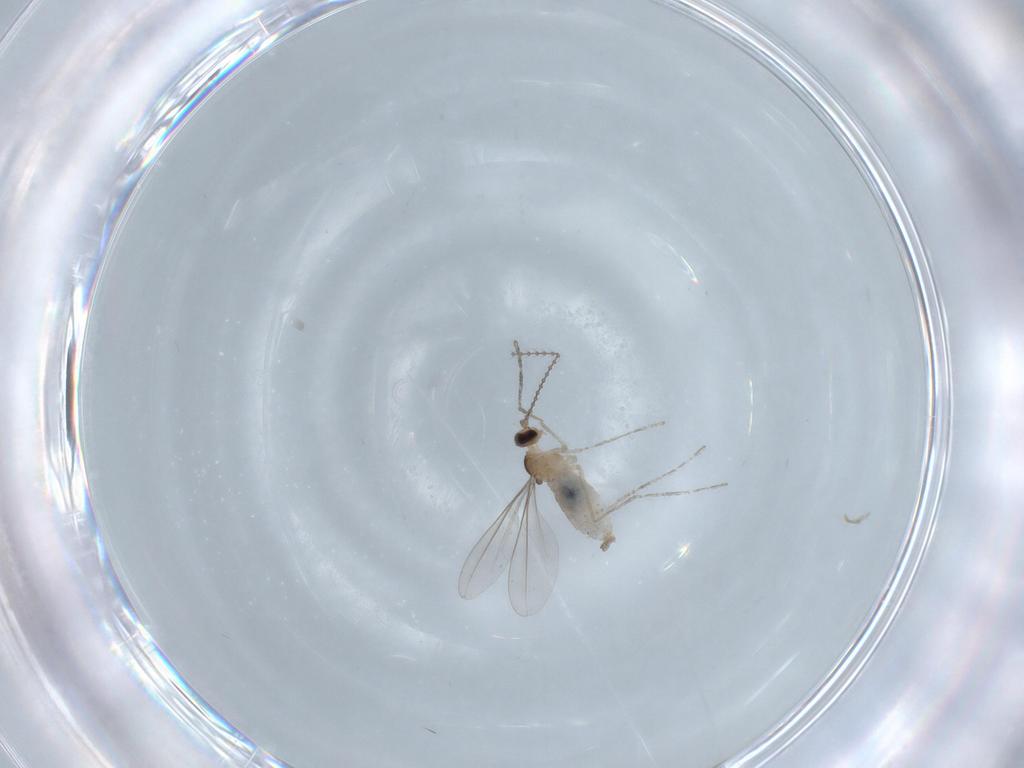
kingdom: Animalia
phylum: Arthropoda
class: Insecta
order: Diptera
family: Cecidomyiidae
